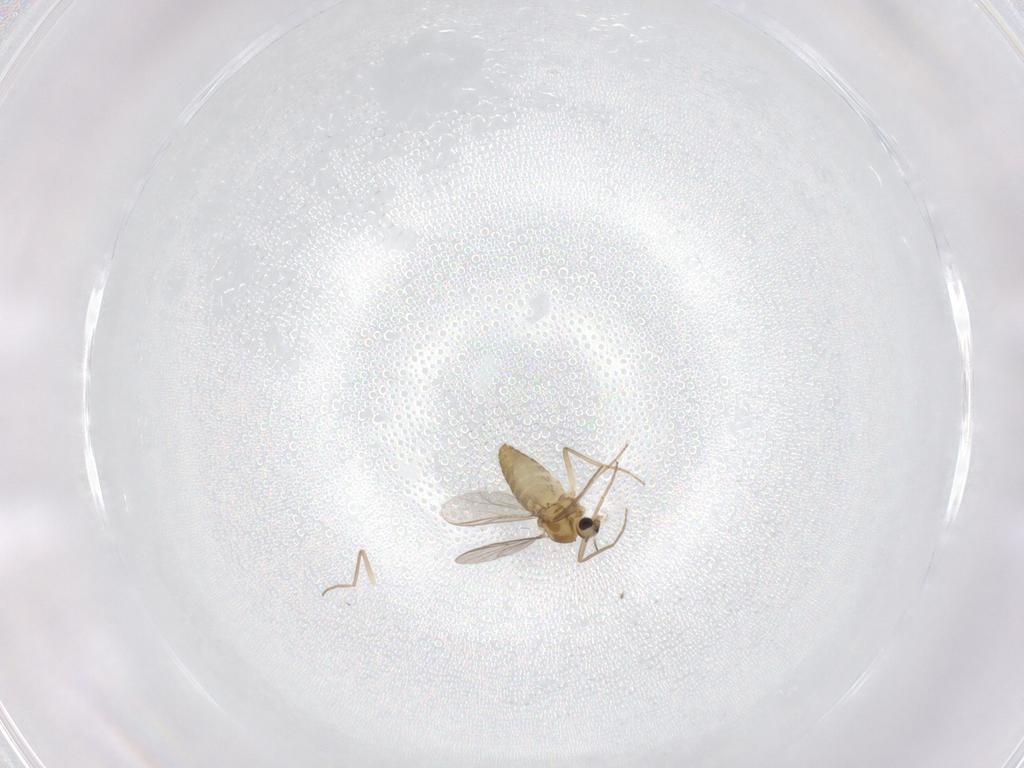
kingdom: Animalia
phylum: Arthropoda
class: Insecta
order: Diptera
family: Chironomidae
